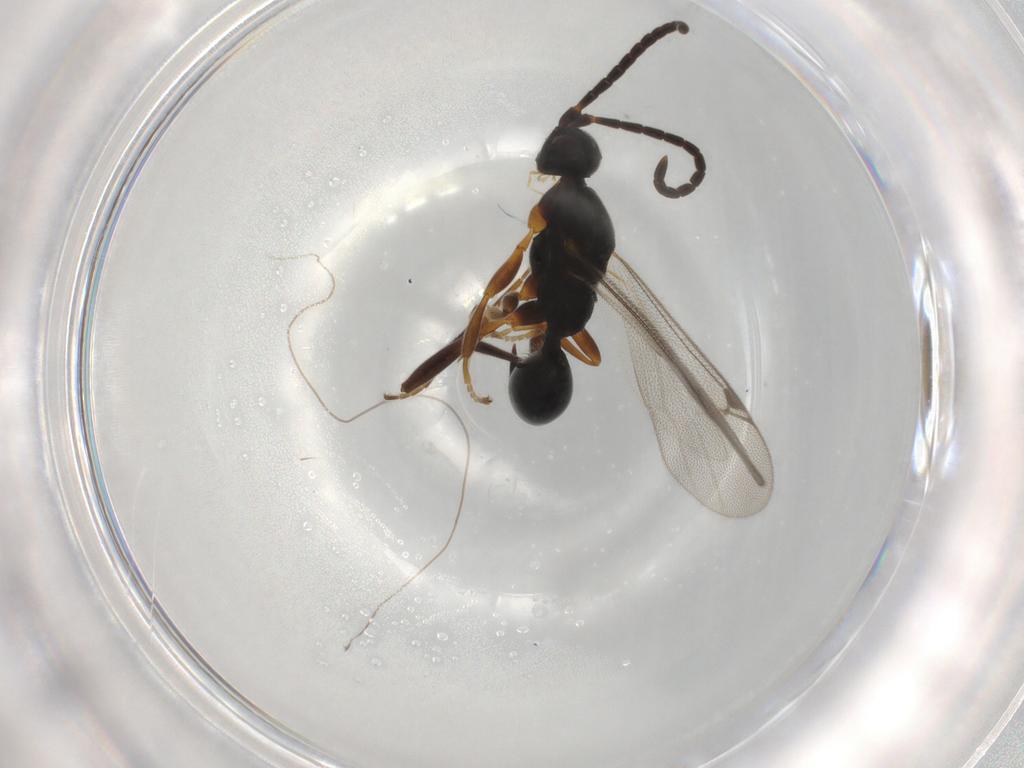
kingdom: Animalia
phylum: Arthropoda
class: Insecta
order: Hymenoptera
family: Proctotrupidae
